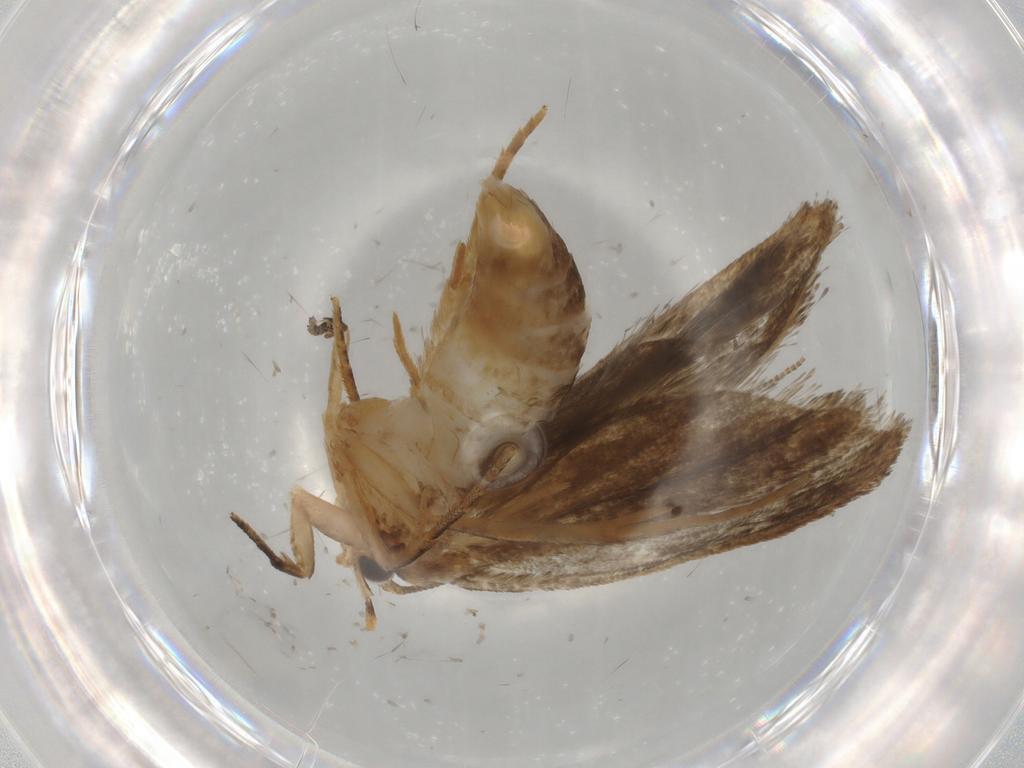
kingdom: Animalia
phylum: Arthropoda
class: Insecta
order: Lepidoptera
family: Tineidae
